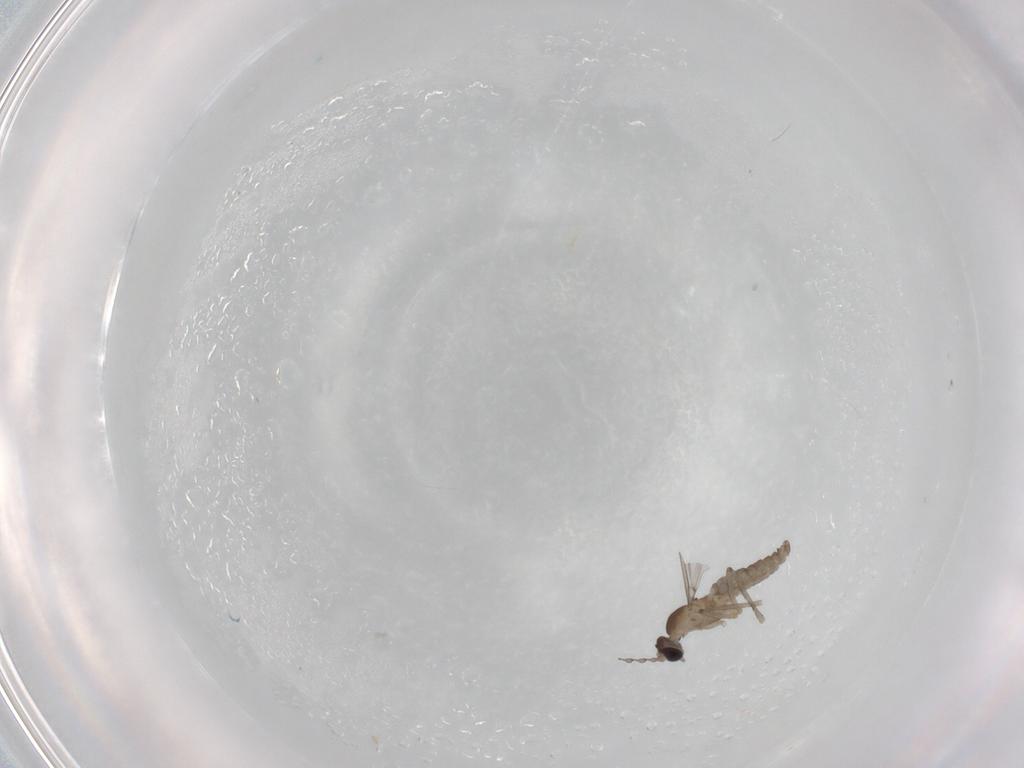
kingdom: Animalia
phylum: Arthropoda
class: Insecta
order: Diptera
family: Cecidomyiidae
